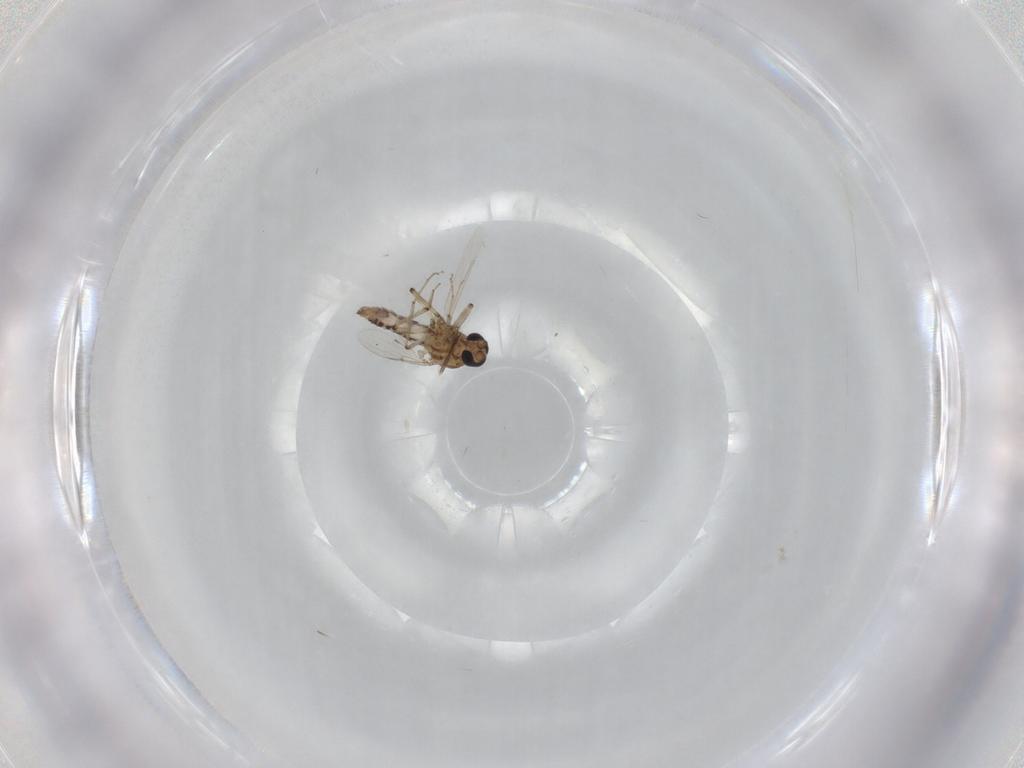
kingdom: Animalia
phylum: Arthropoda
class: Insecta
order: Diptera
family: Ceratopogonidae
